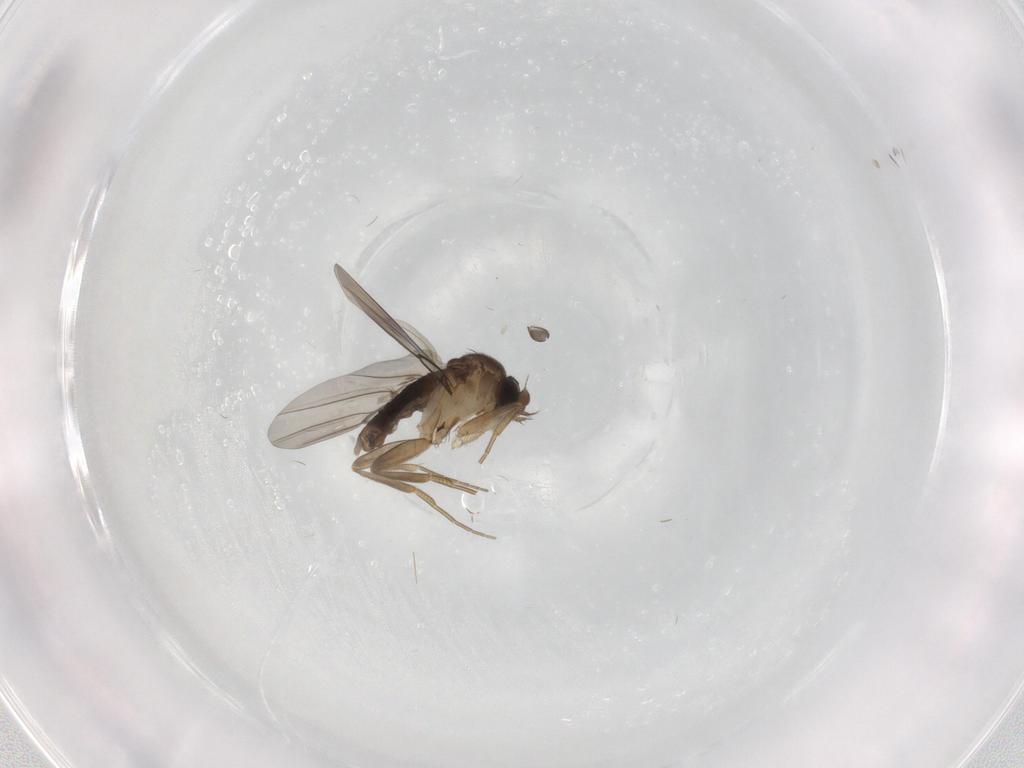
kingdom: Animalia
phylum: Arthropoda
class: Insecta
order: Diptera
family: Phoridae
